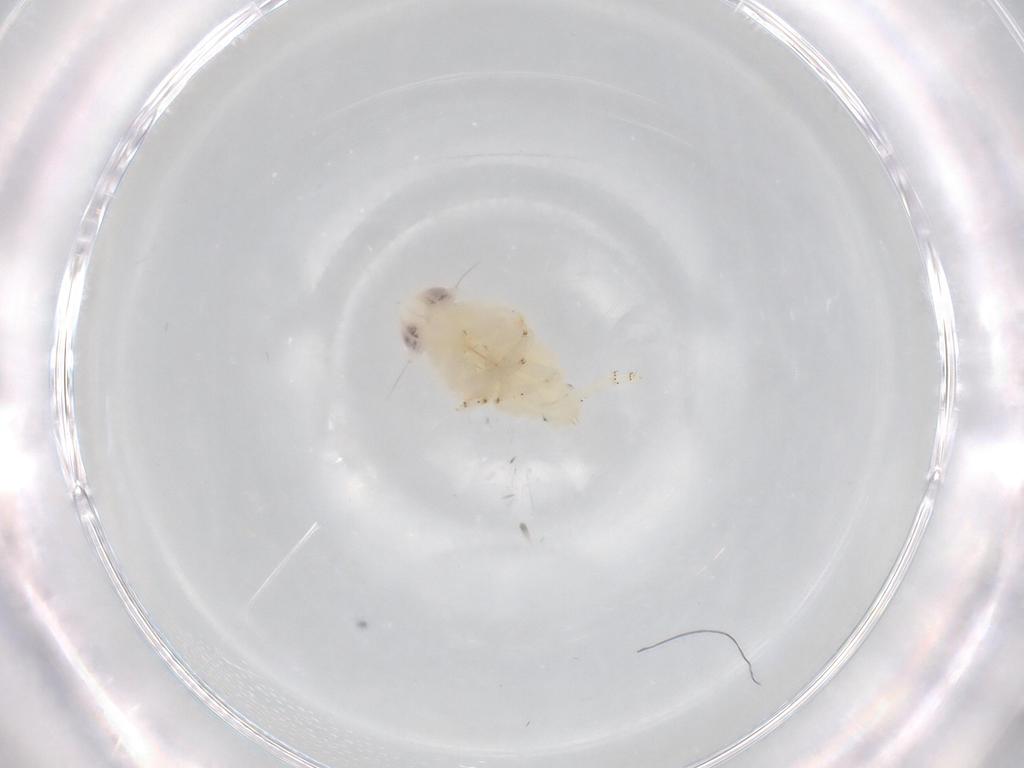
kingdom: Animalia
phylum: Arthropoda
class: Insecta
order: Hemiptera
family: Nogodinidae
